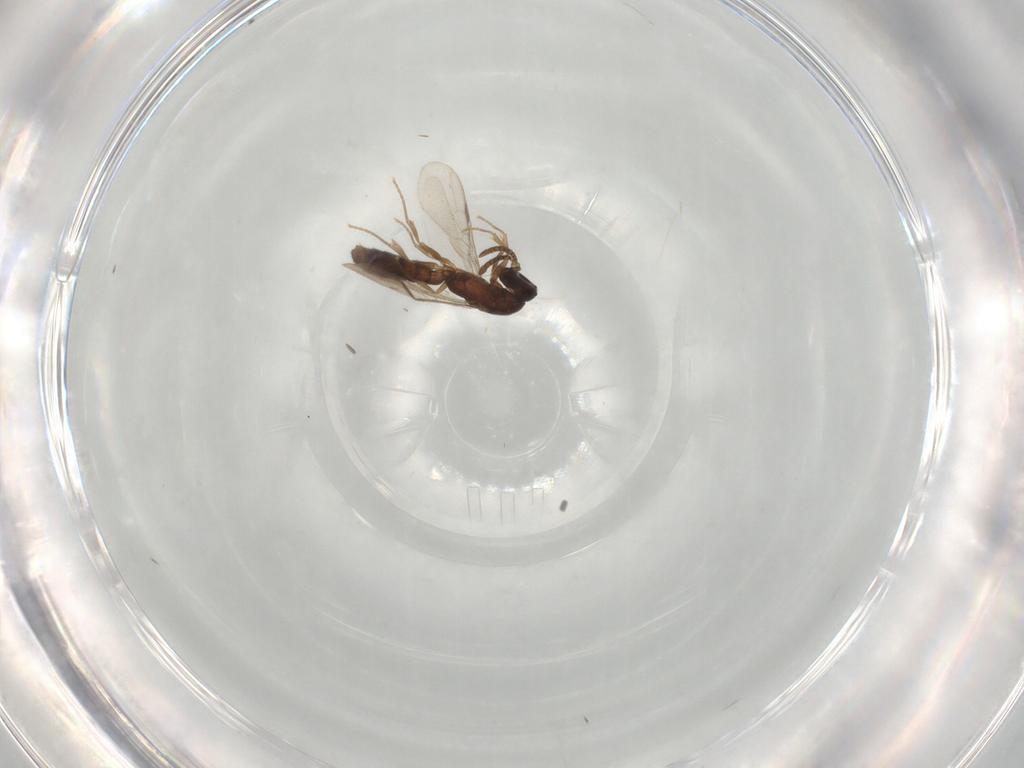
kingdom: Animalia
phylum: Arthropoda
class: Insecta
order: Hymenoptera
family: Formicidae
